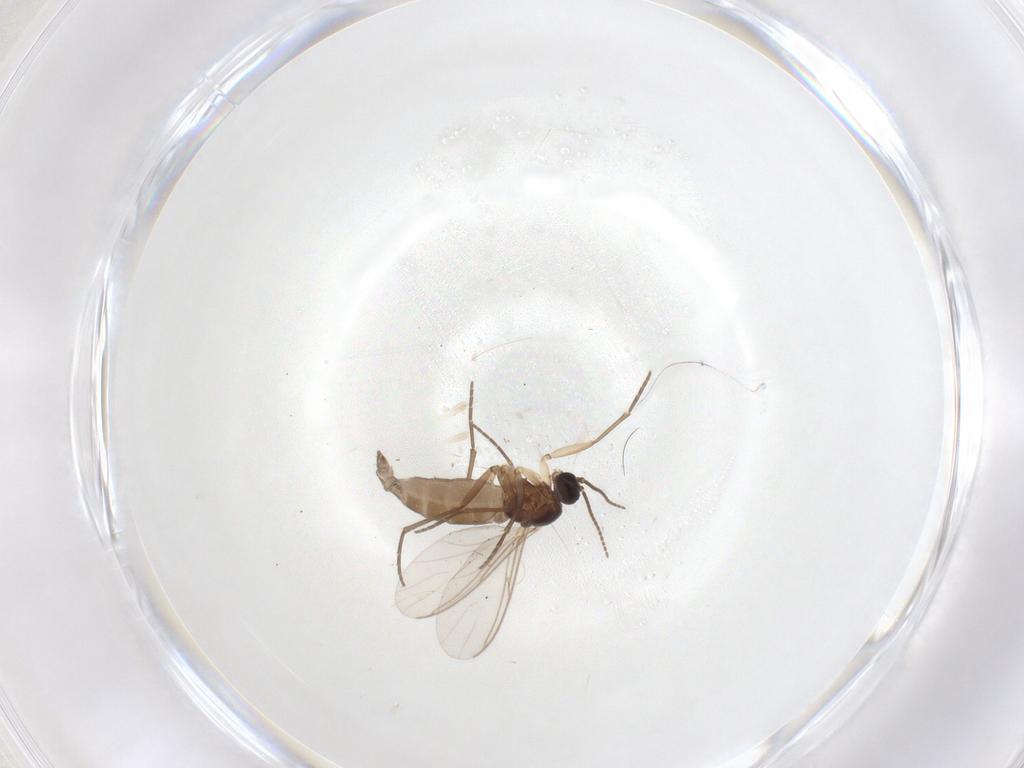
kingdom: Animalia
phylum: Arthropoda
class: Insecta
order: Diptera
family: Sciaridae
